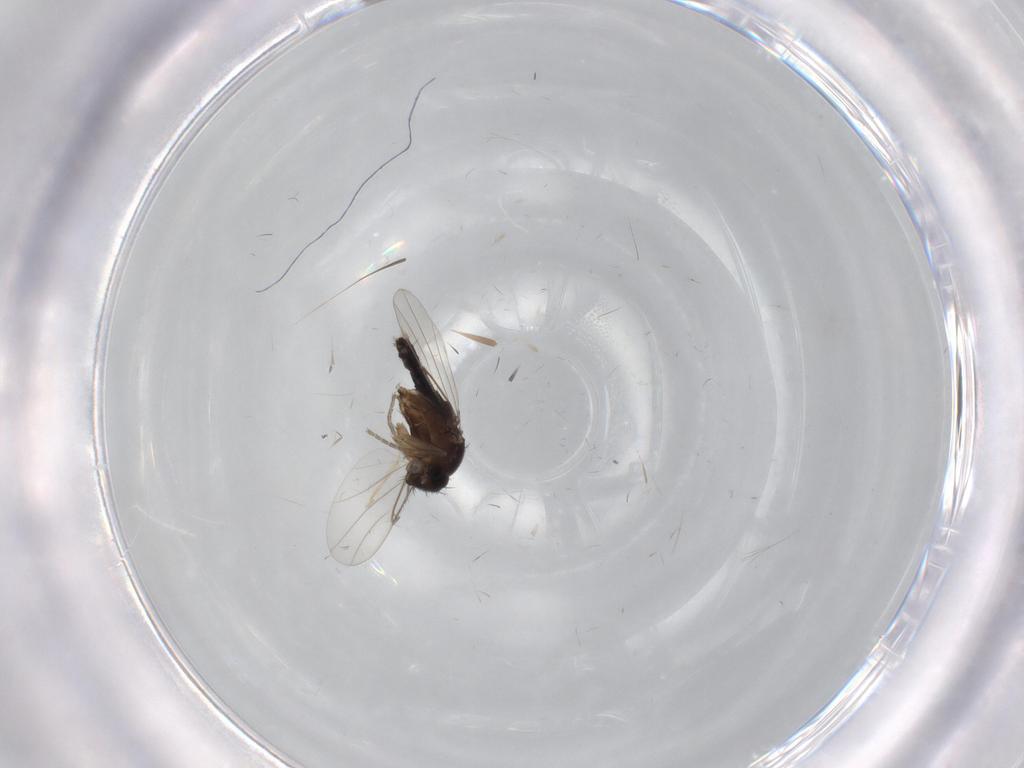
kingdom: Animalia
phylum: Arthropoda
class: Insecta
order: Diptera
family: Phoridae
